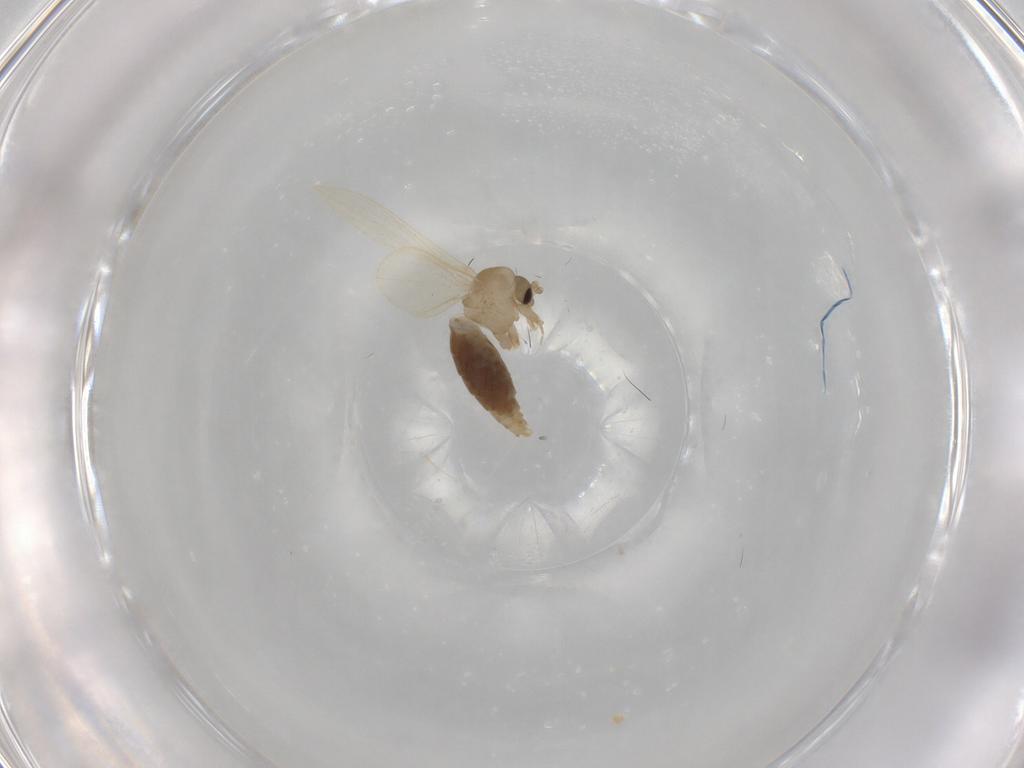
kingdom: Animalia
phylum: Arthropoda
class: Insecta
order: Diptera
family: Psychodidae
